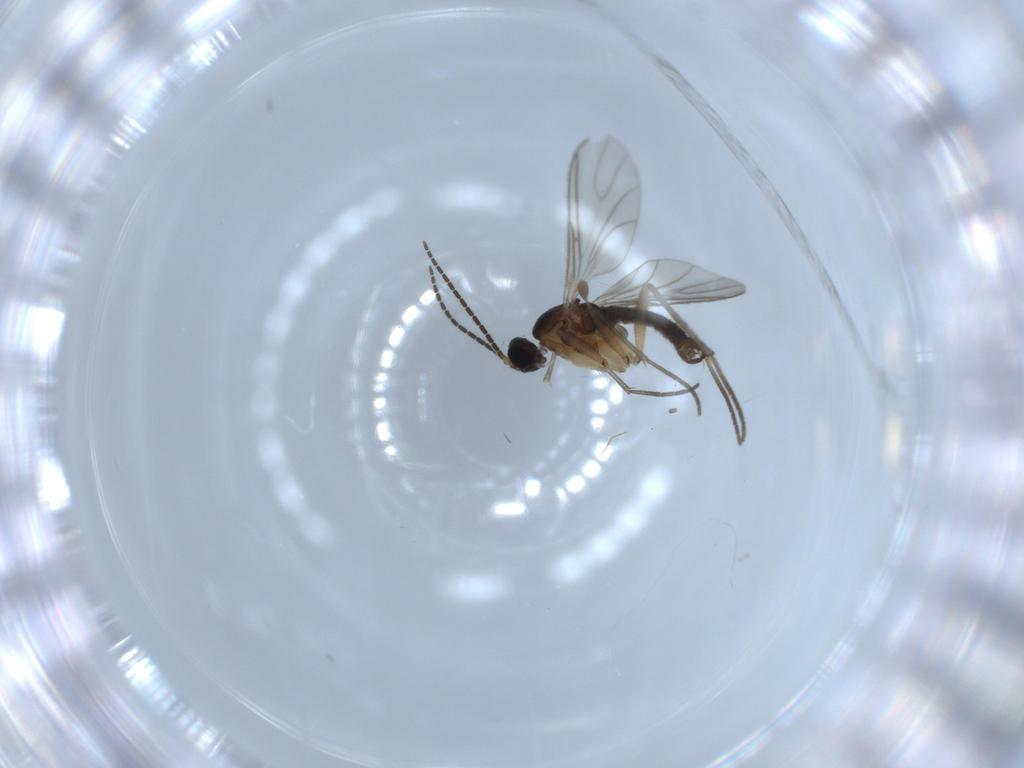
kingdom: Animalia
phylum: Arthropoda
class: Insecta
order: Diptera
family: Sciaridae
